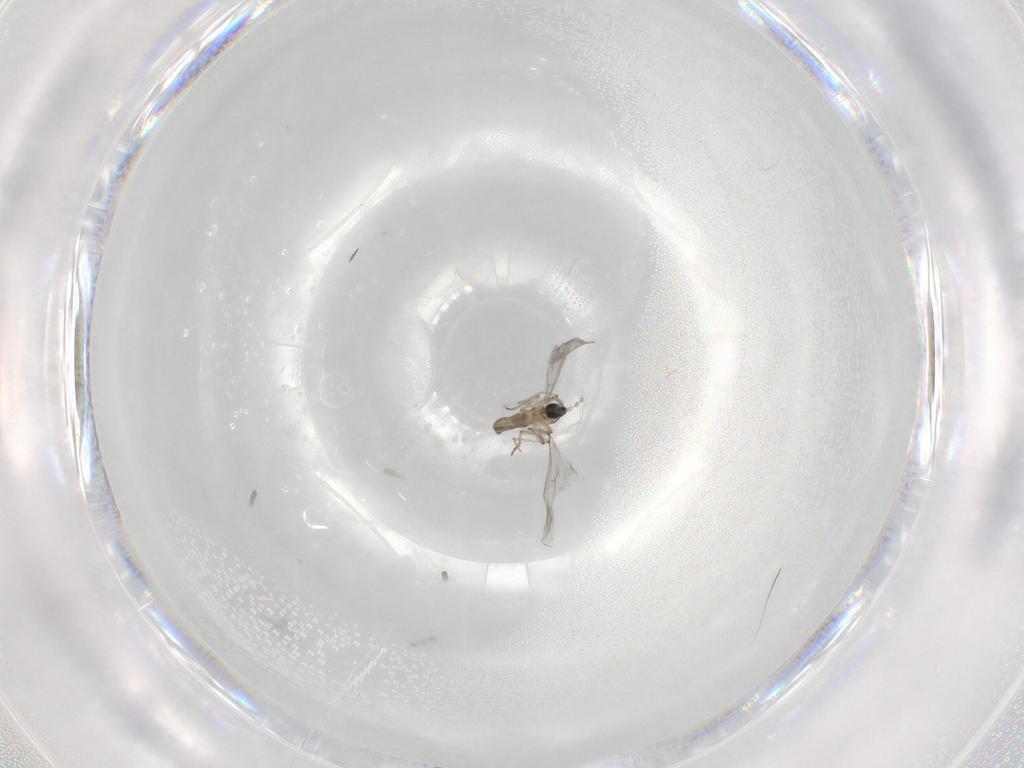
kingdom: Animalia
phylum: Arthropoda
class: Insecta
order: Diptera
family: Cecidomyiidae
